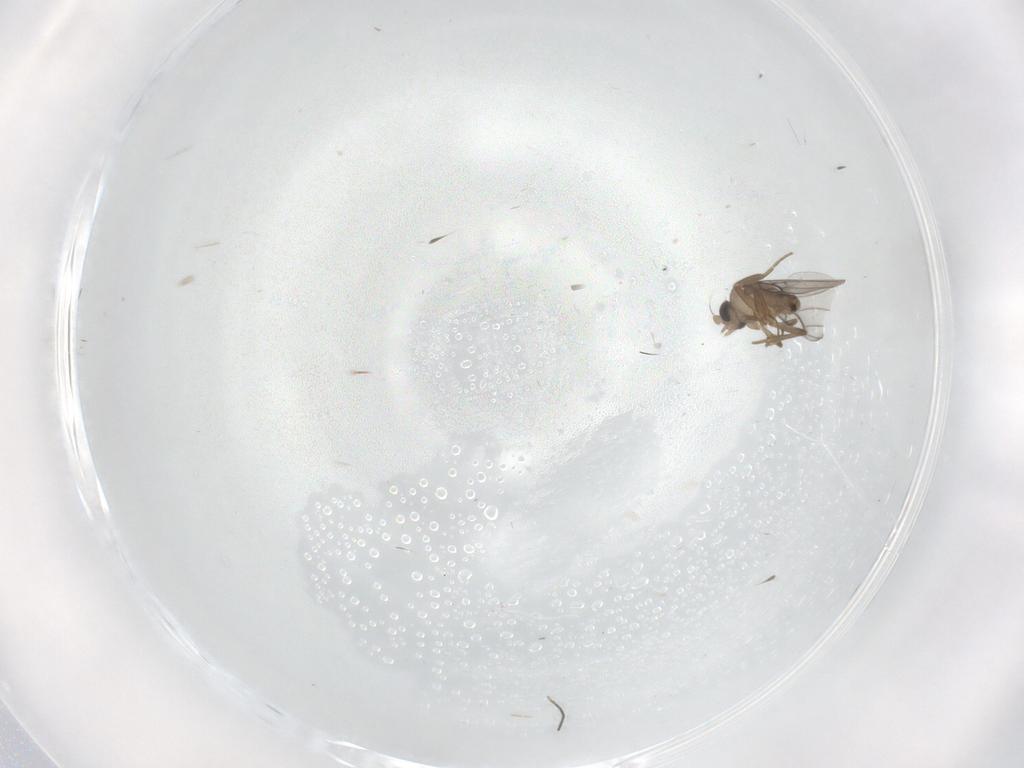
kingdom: Animalia
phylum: Arthropoda
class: Insecta
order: Diptera
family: Chironomidae
